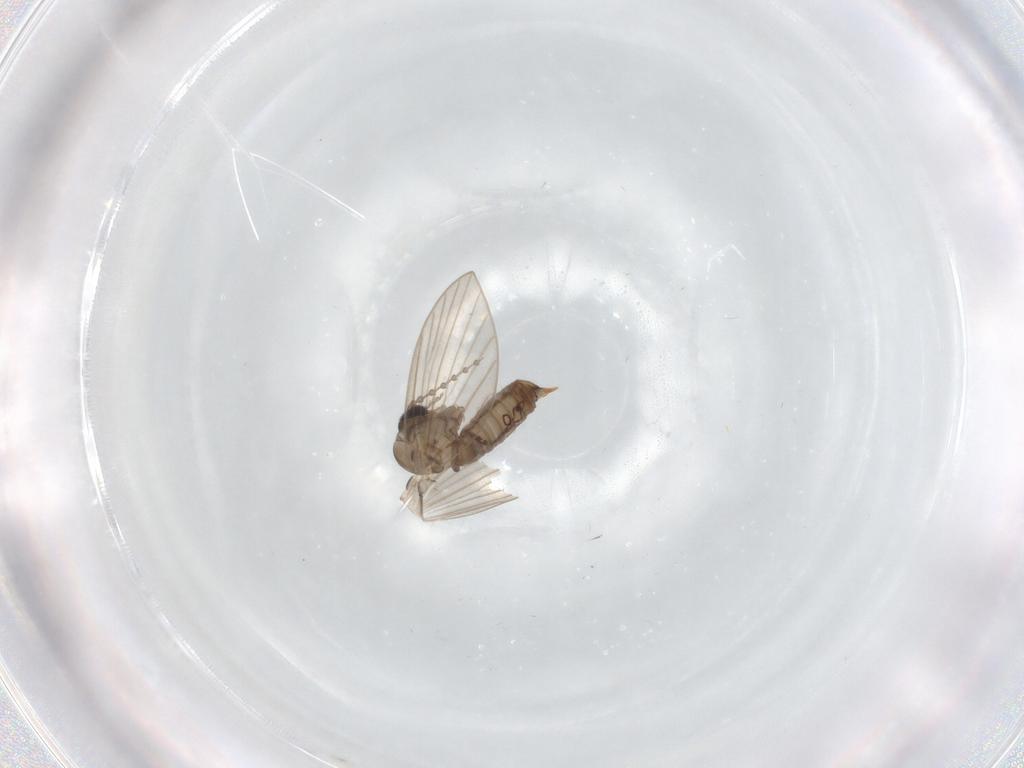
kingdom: Animalia
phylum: Arthropoda
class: Insecta
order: Diptera
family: Psychodidae
